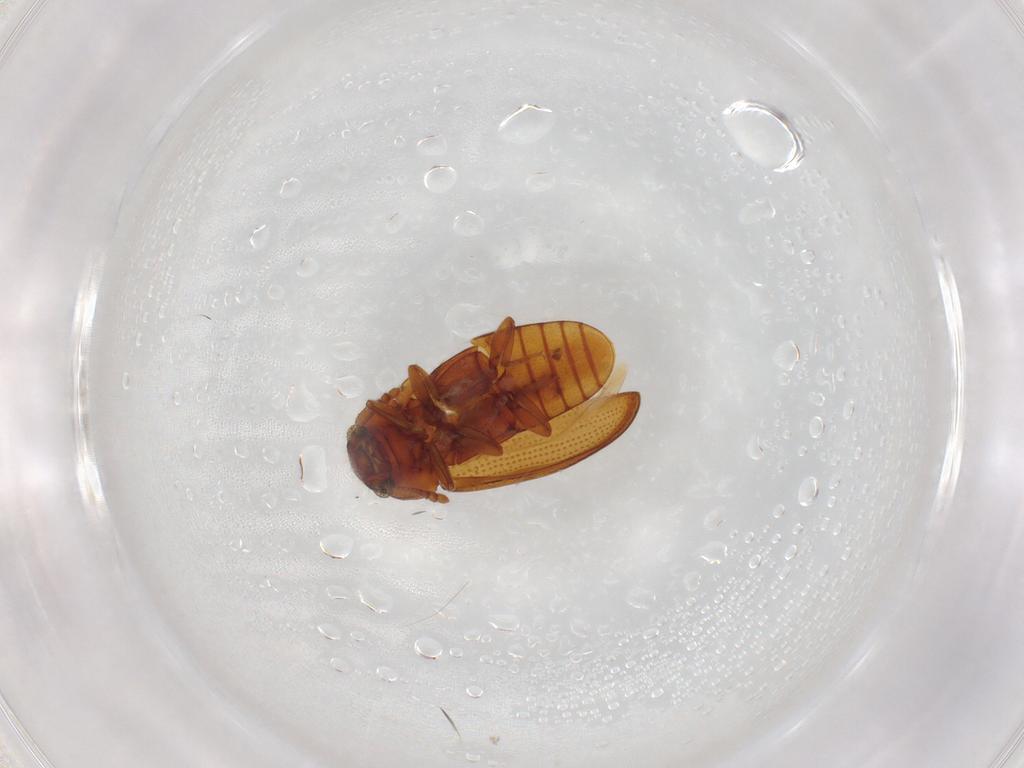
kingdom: Animalia
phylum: Arthropoda
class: Insecta
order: Coleoptera
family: Erotylidae
